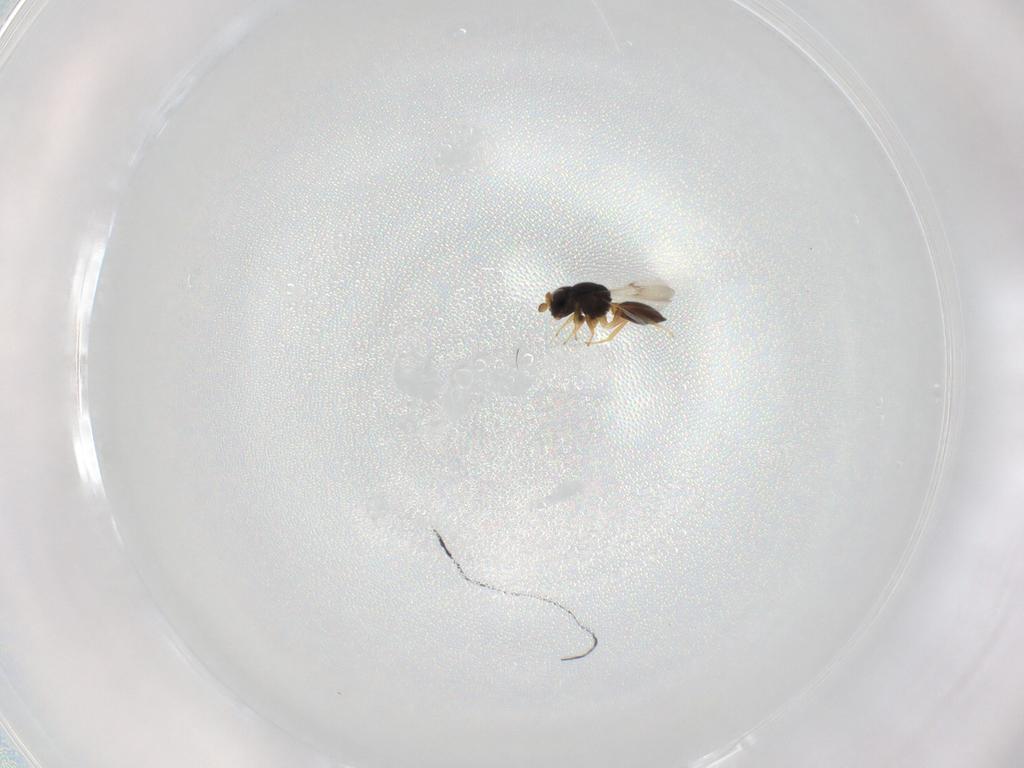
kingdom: Animalia
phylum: Arthropoda
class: Insecta
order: Hymenoptera
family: Scelionidae
